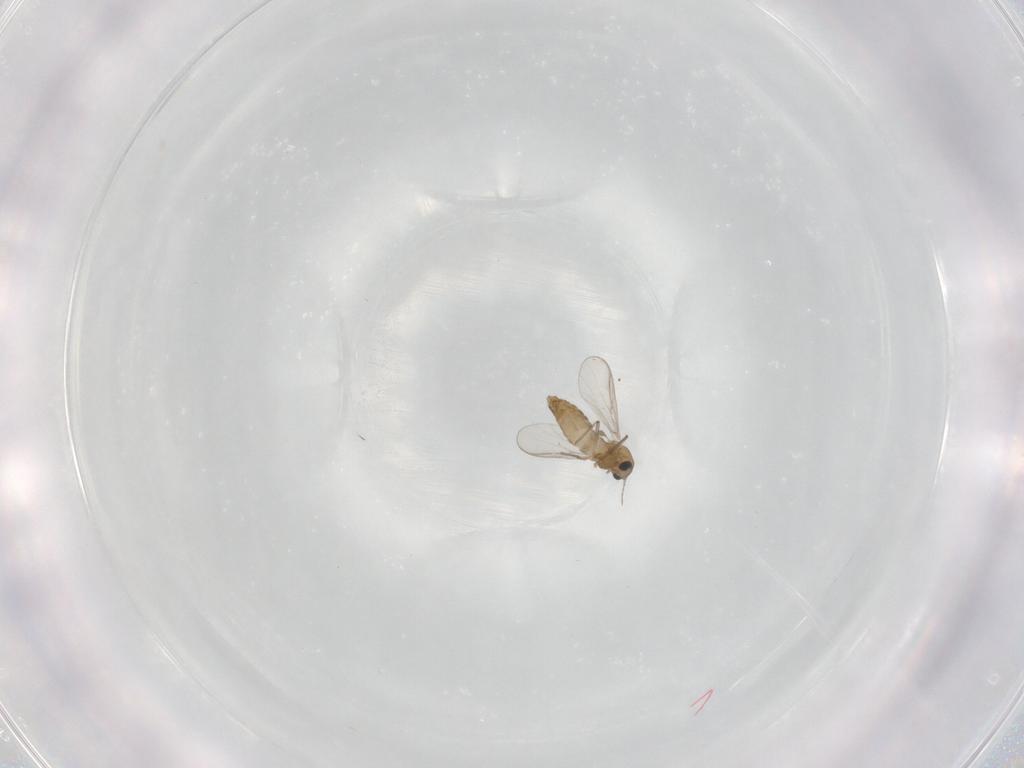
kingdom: Animalia
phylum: Arthropoda
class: Insecta
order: Diptera
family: Chironomidae
